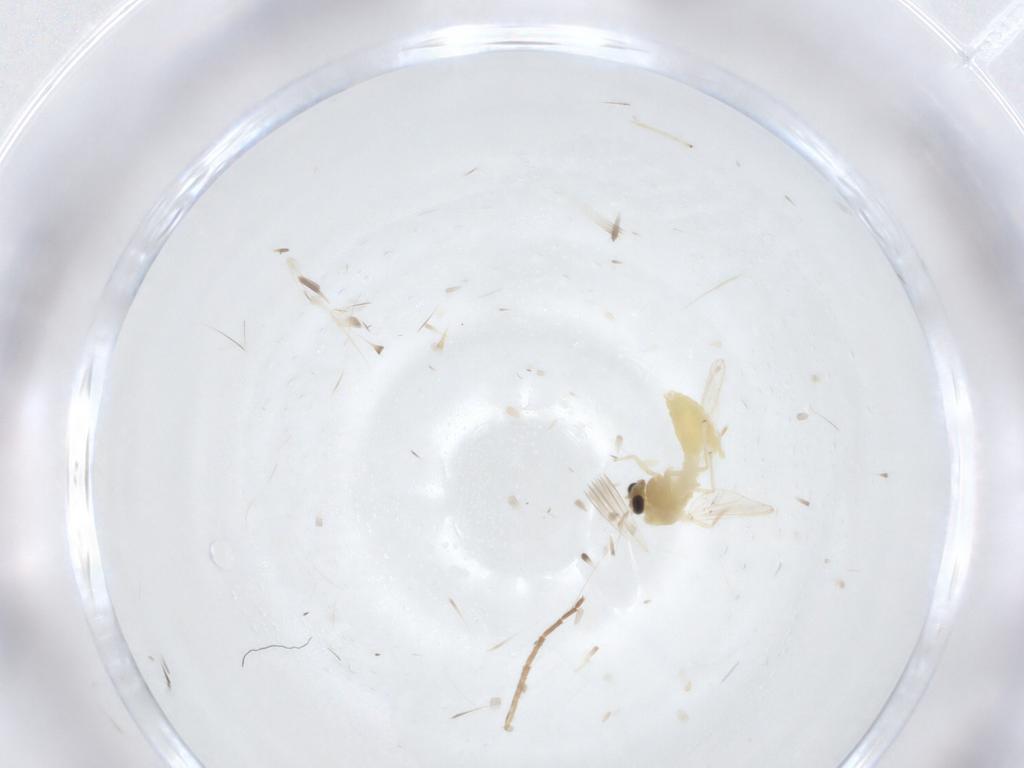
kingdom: Animalia
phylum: Arthropoda
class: Insecta
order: Diptera
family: Chironomidae
